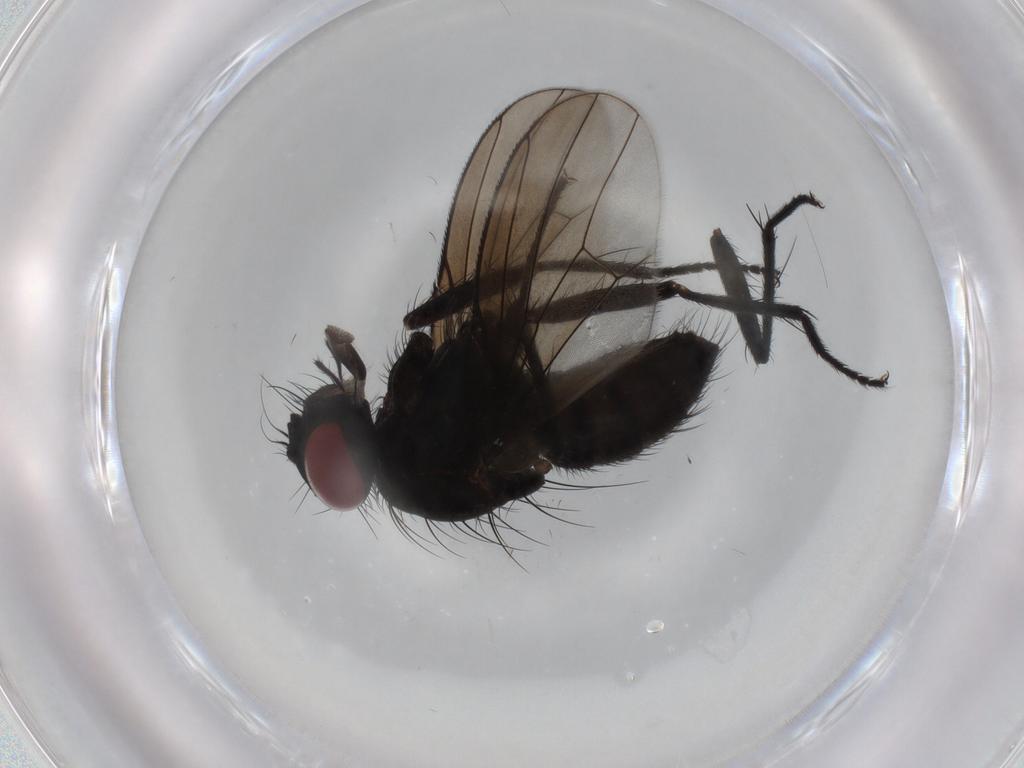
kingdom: Animalia
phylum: Arthropoda
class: Insecta
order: Diptera
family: Muscidae
